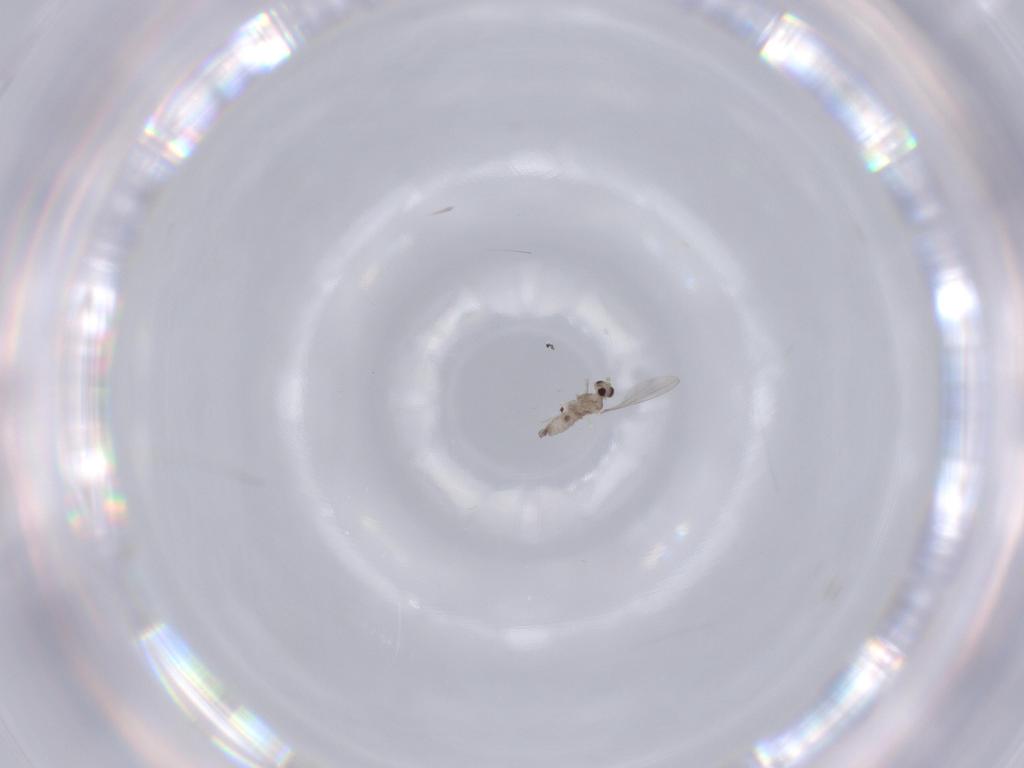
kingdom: Animalia
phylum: Arthropoda
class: Insecta
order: Diptera
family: Cecidomyiidae
